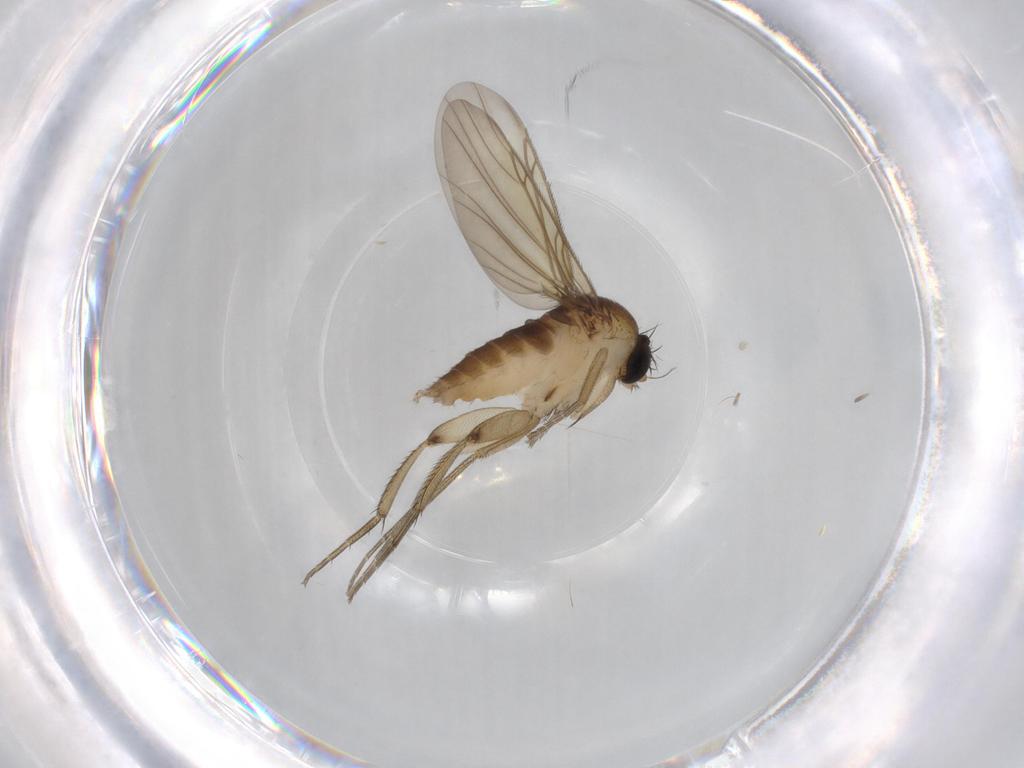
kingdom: Animalia
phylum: Arthropoda
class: Insecta
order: Diptera
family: Phoridae
